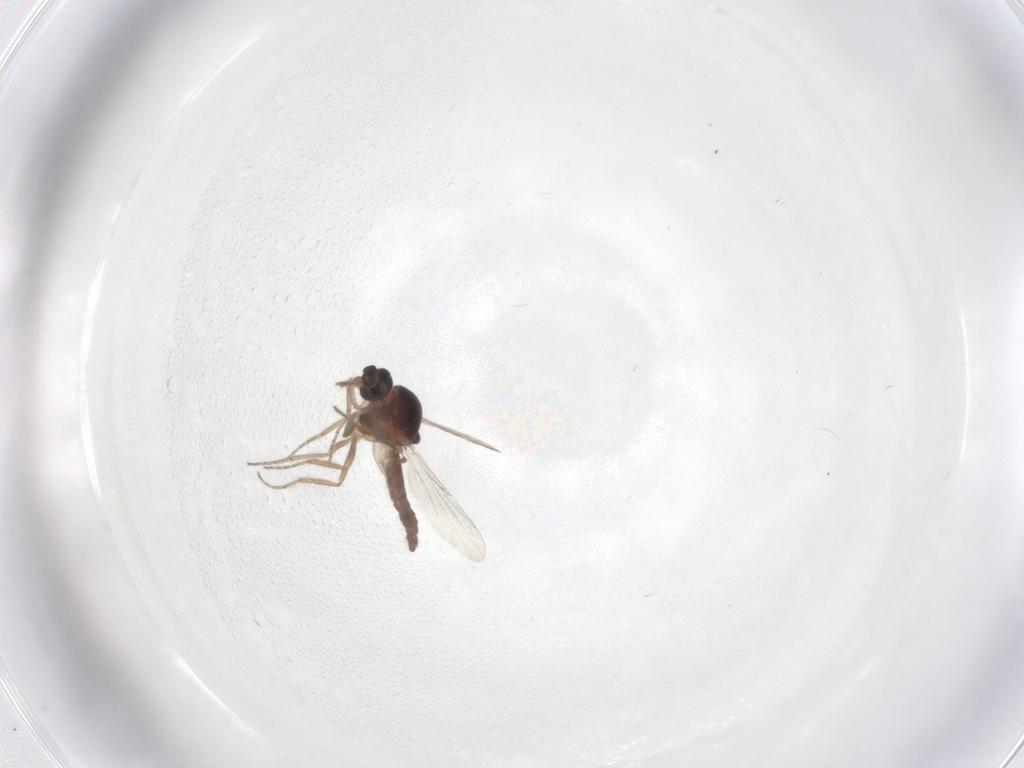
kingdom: Animalia
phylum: Arthropoda
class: Insecta
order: Diptera
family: Ceratopogonidae
